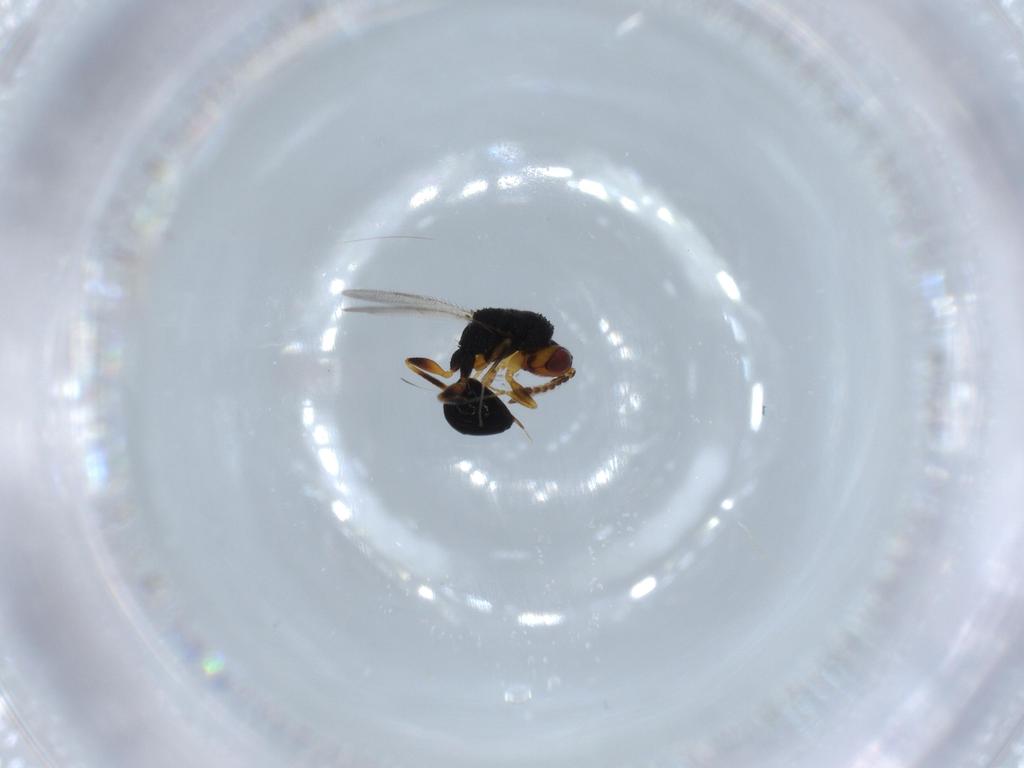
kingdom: Animalia
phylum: Arthropoda
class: Insecta
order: Hymenoptera
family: Eurytomidae
